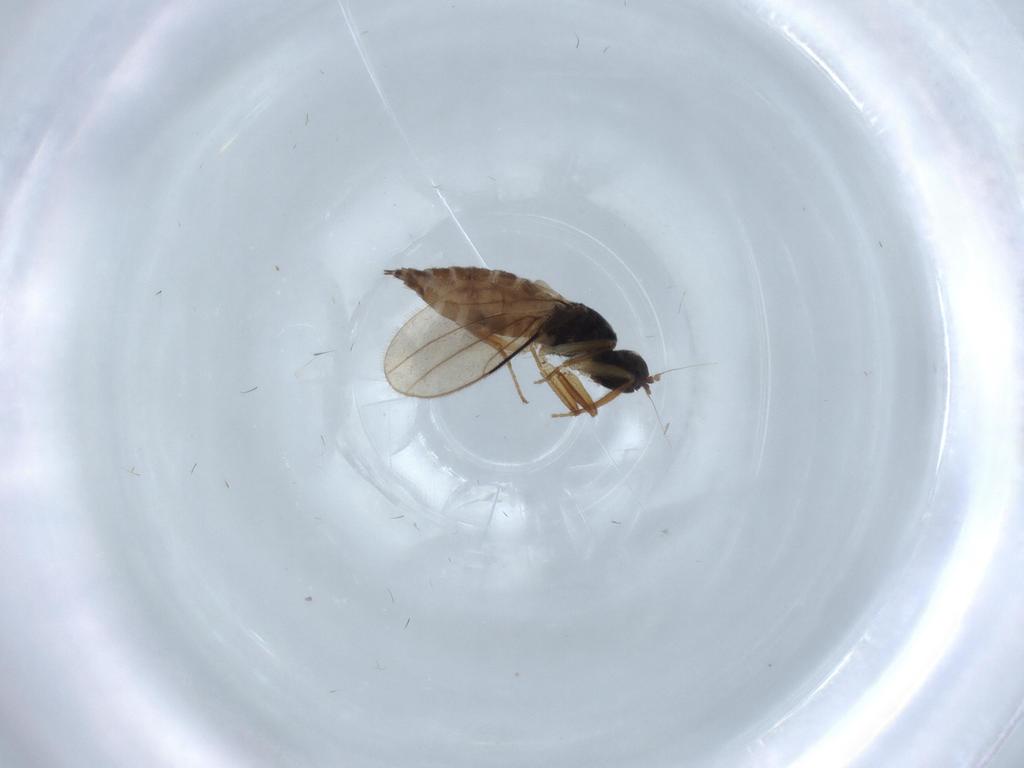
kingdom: Animalia
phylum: Arthropoda
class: Insecta
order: Diptera
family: Hybotidae
